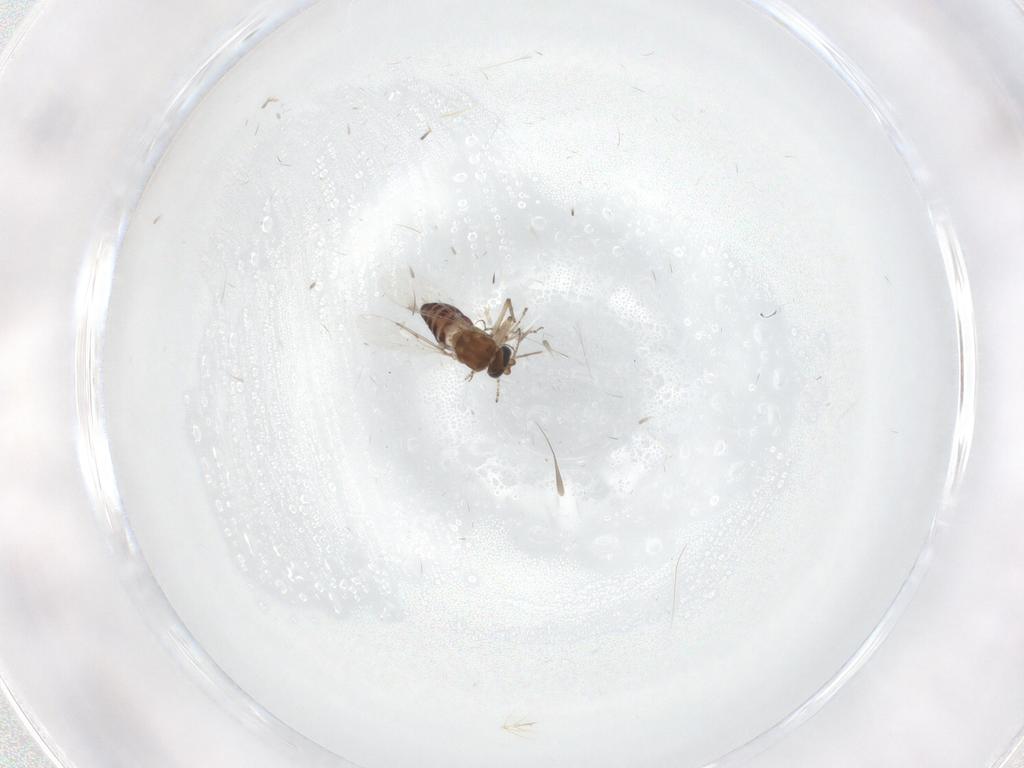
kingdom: Animalia
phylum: Arthropoda
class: Insecta
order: Diptera
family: Ceratopogonidae
